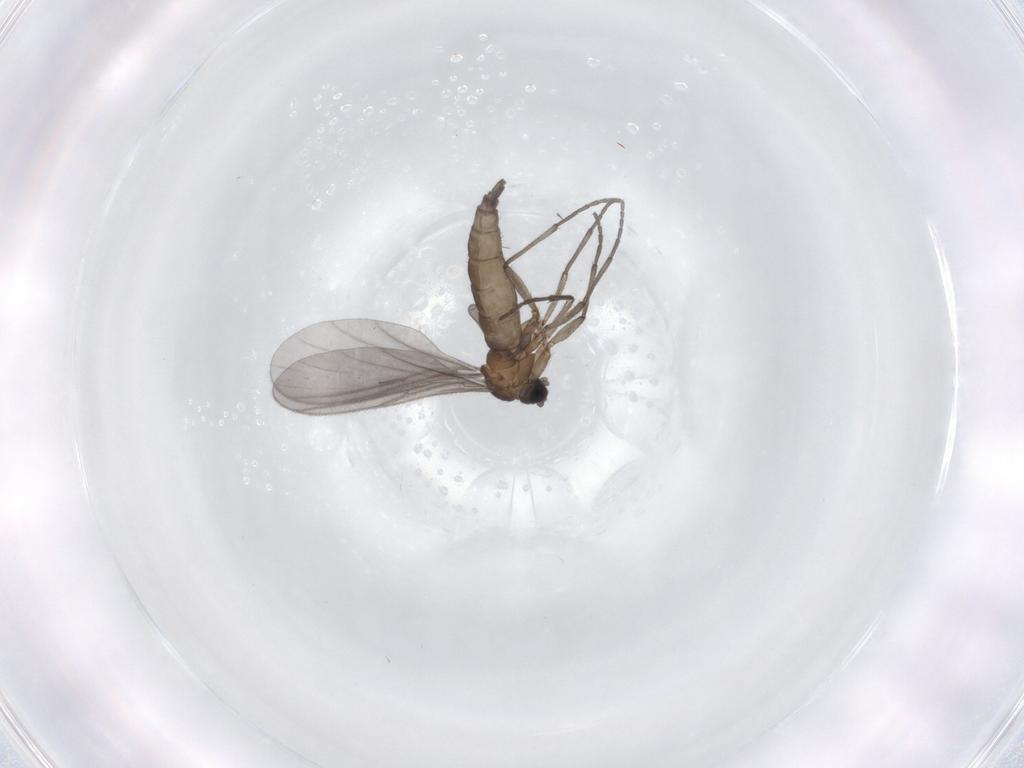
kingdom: Animalia
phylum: Arthropoda
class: Insecta
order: Diptera
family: Sciaridae
